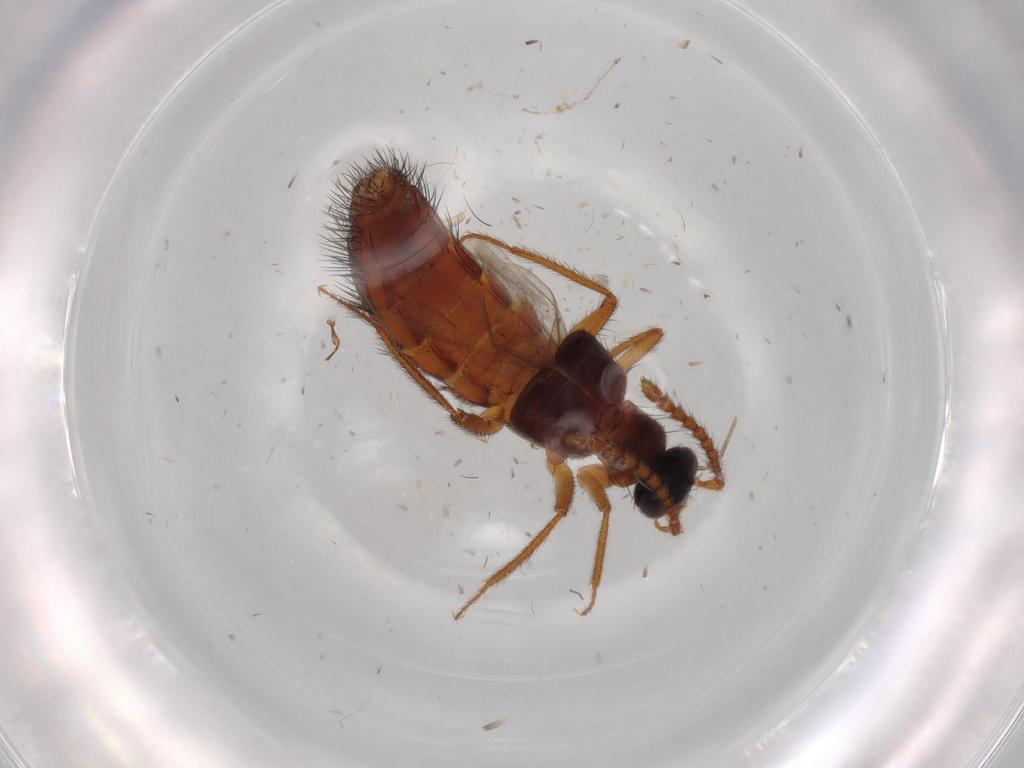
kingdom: Animalia
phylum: Arthropoda
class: Insecta
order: Coleoptera
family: Staphylinidae
